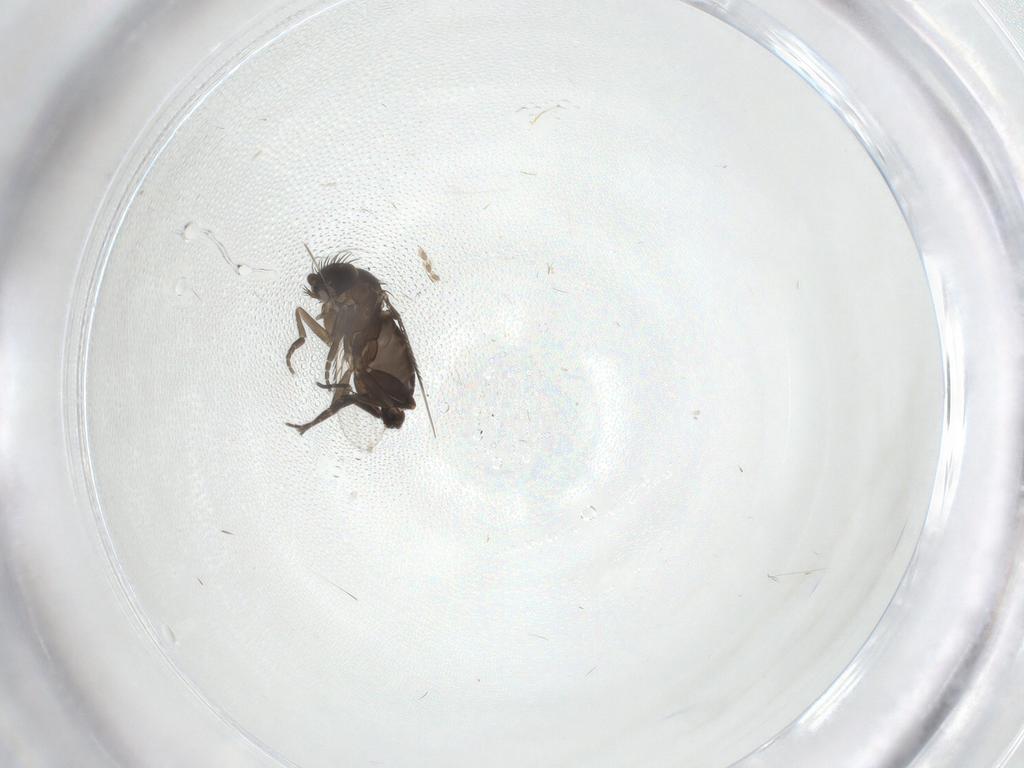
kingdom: Animalia
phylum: Arthropoda
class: Insecta
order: Diptera
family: Phoridae
